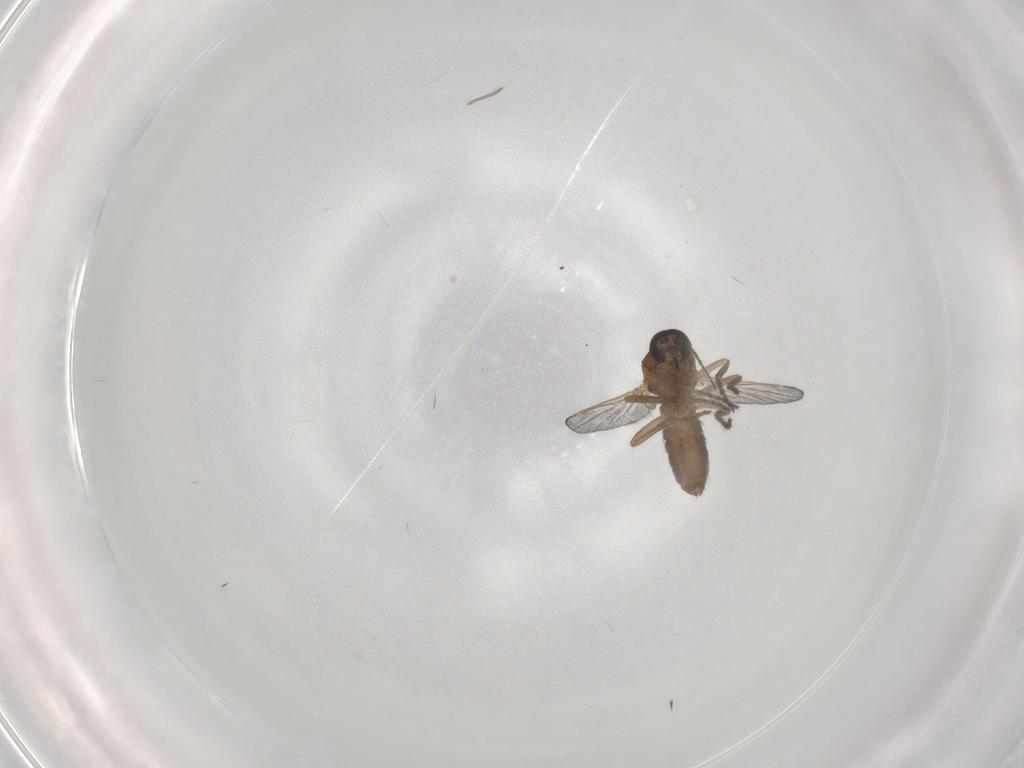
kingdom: Animalia
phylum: Arthropoda
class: Insecta
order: Diptera
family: Ceratopogonidae
